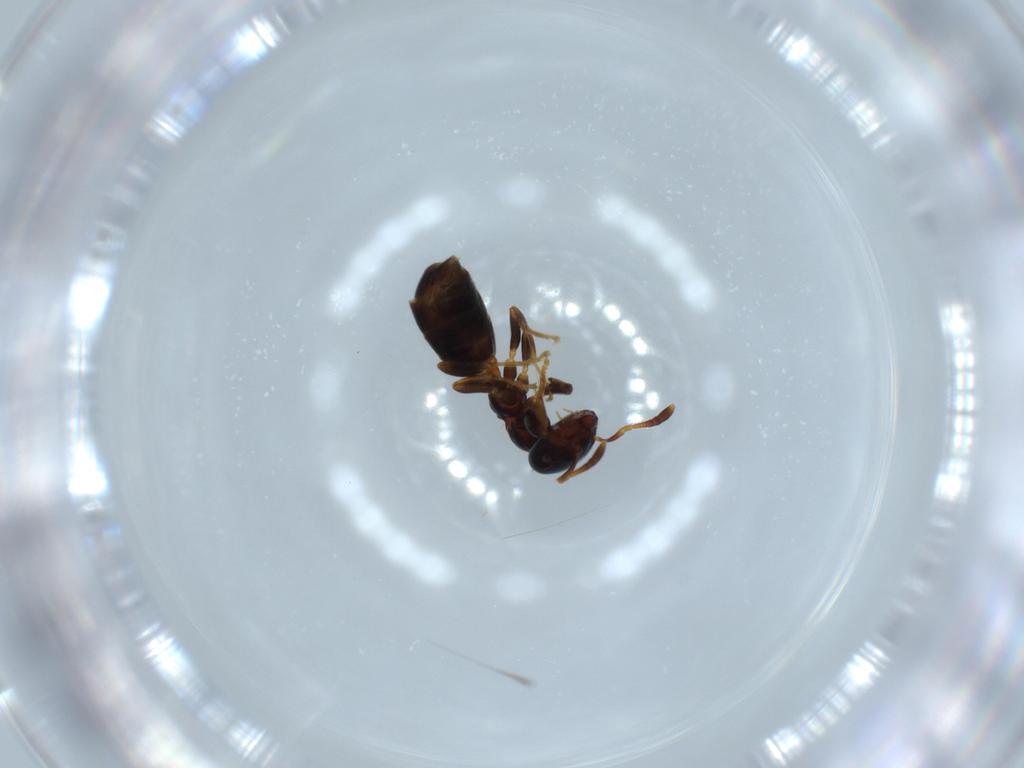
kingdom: Animalia
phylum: Arthropoda
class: Insecta
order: Hymenoptera
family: Formicidae
